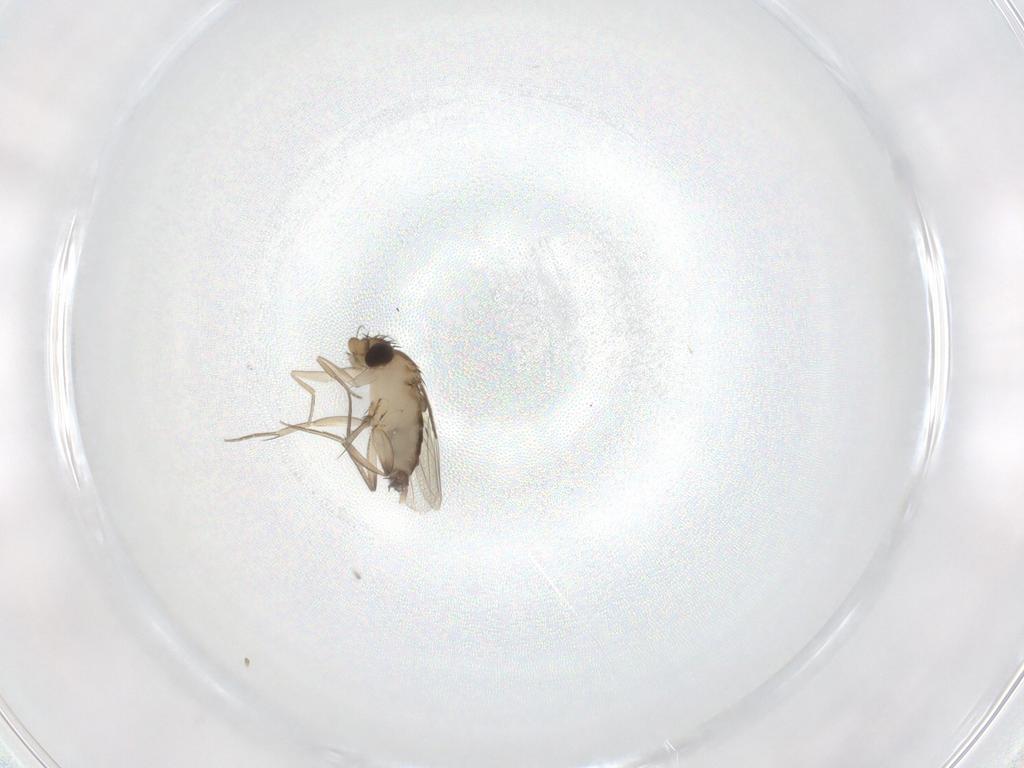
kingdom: Animalia
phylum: Arthropoda
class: Insecta
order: Diptera
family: Phoridae
